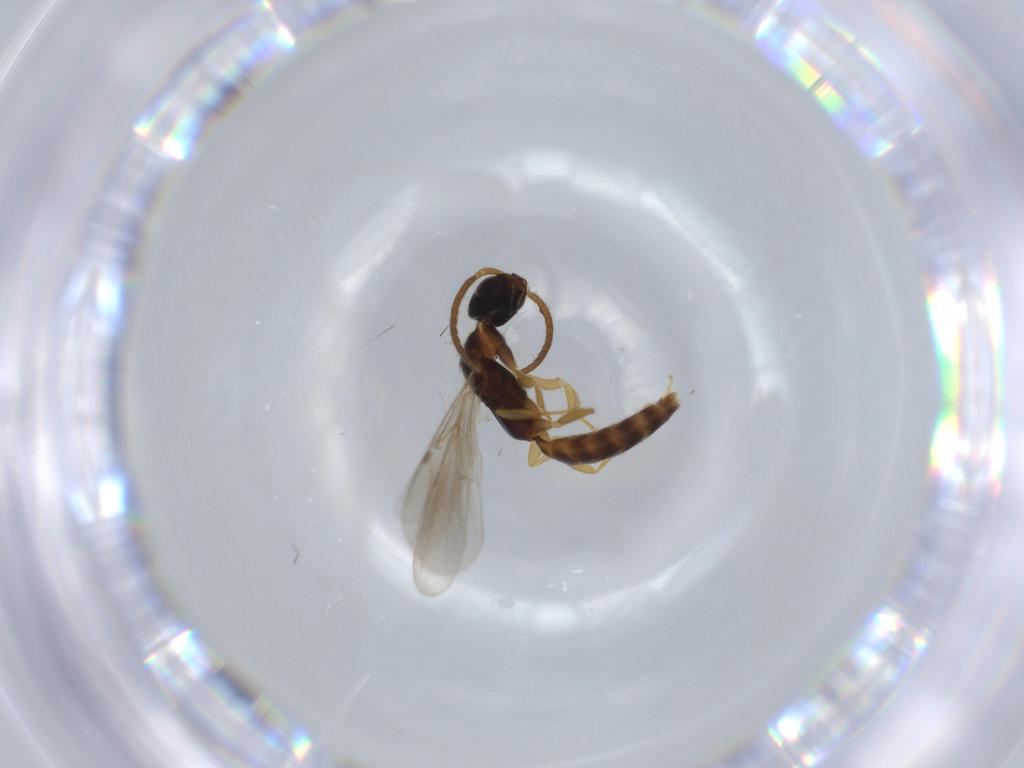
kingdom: Animalia
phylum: Arthropoda
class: Insecta
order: Hymenoptera
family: Bethylidae
